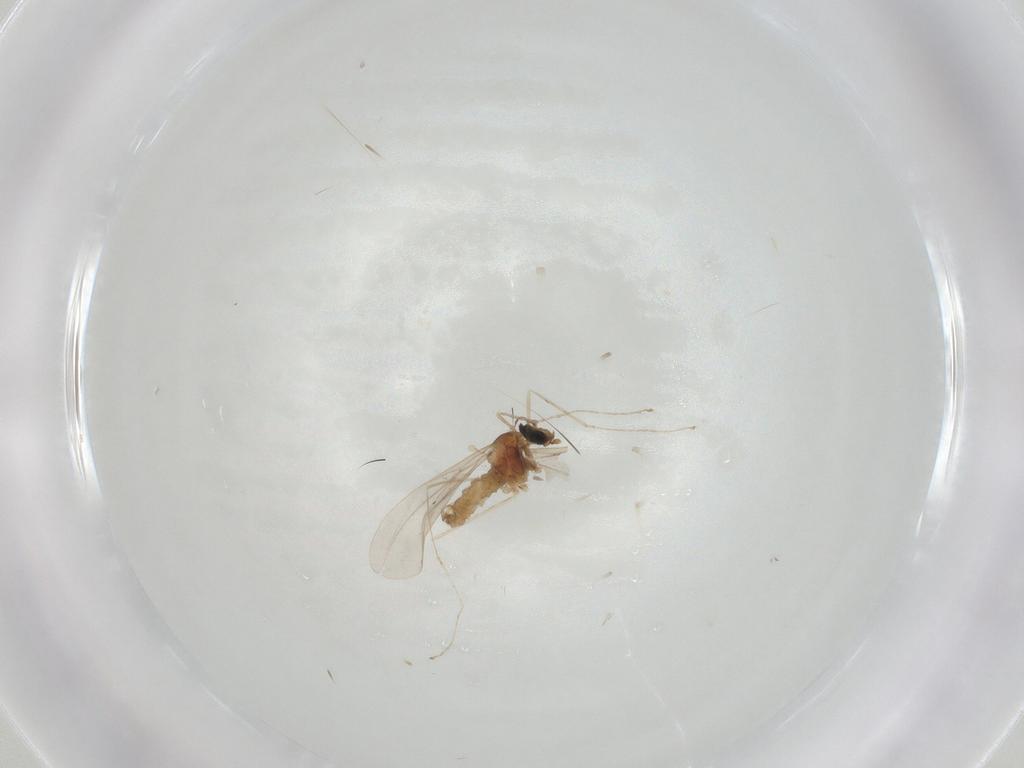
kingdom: Animalia
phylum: Arthropoda
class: Insecta
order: Diptera
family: Cecidomyiidae
